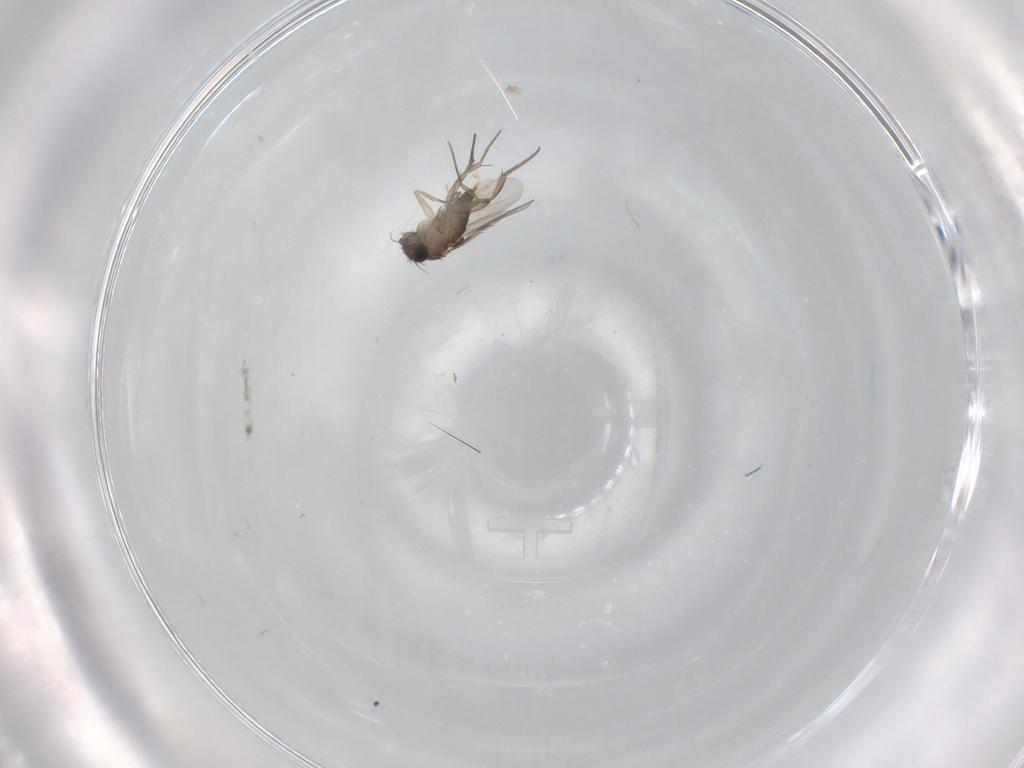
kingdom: Animalia
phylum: Arthropoda
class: Insecta
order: Diptera
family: Phoridae
